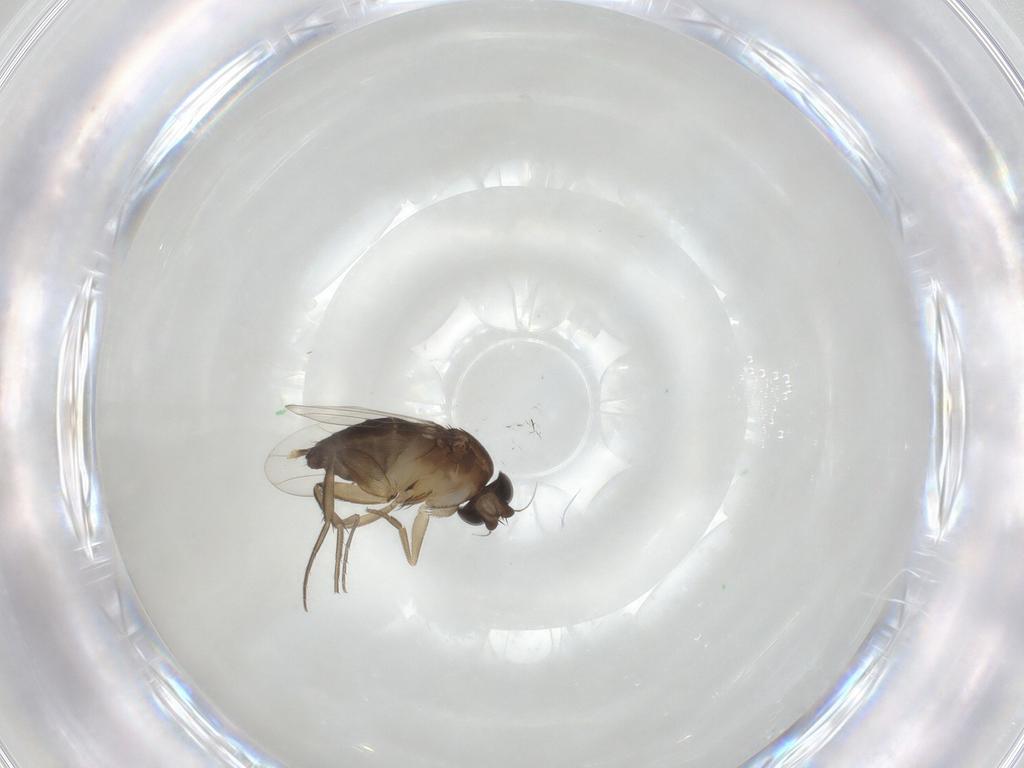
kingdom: Animalia
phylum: Arthropoda
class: Insecta
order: Diptera
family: Phoridae
